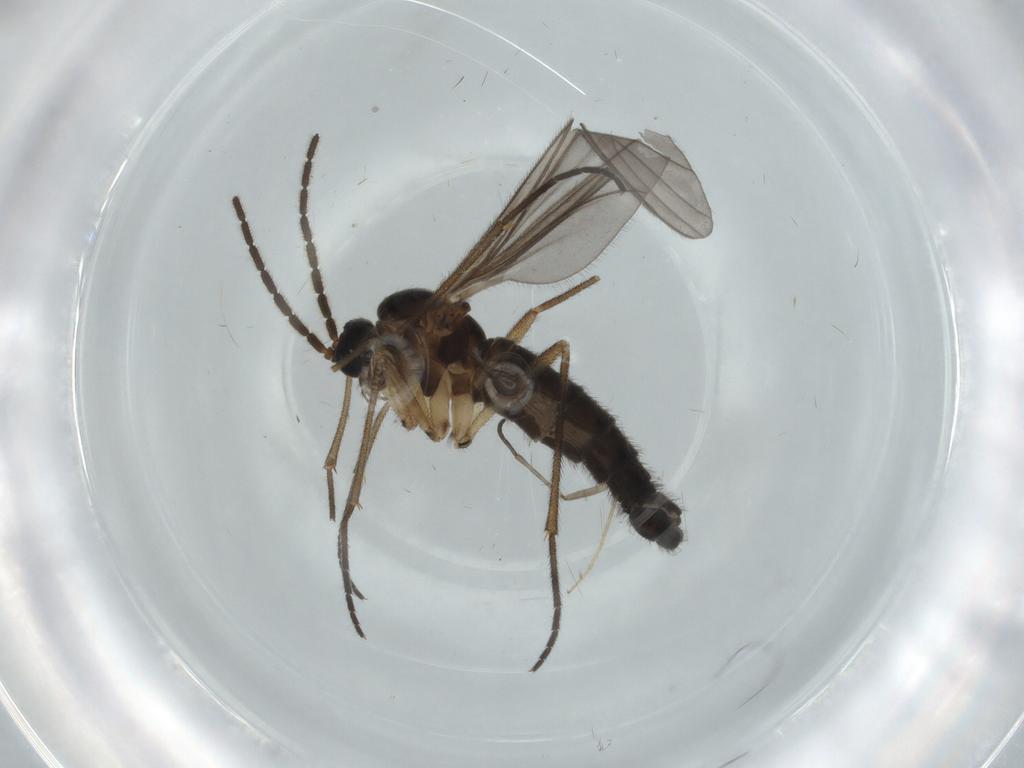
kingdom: Animalia
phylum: Arthropoda
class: Insecta
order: Diptera
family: Sciaridae
